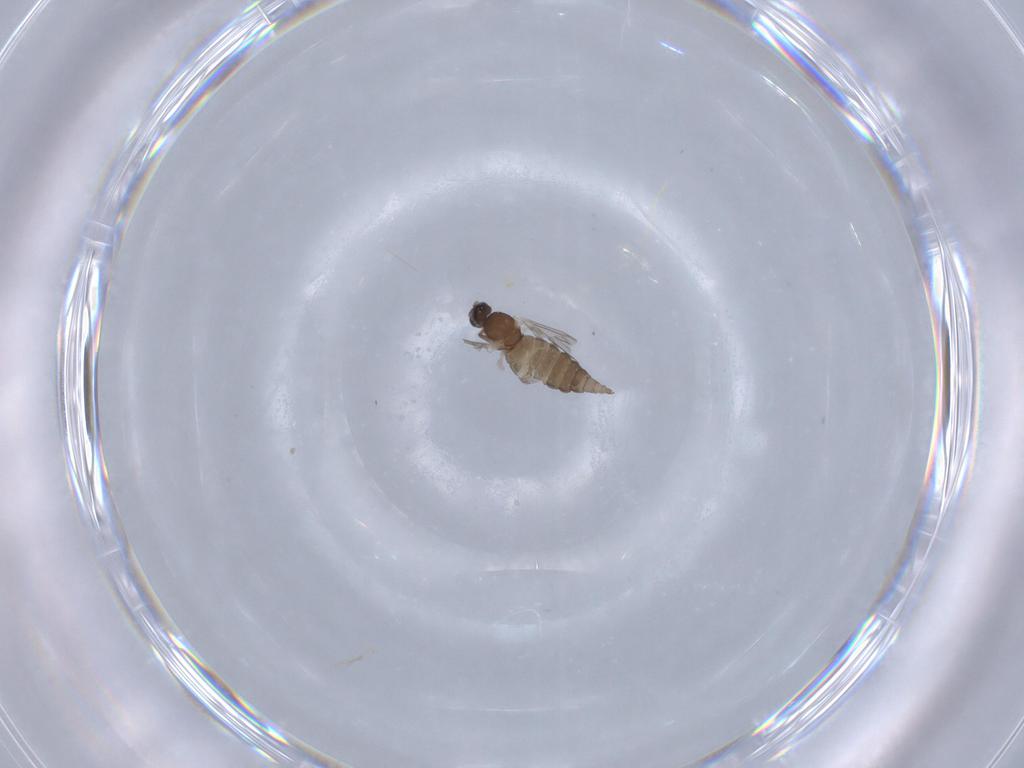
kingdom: Animalia
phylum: Arthropoda
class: Insecta
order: Diptera
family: Cecidomyiidae
